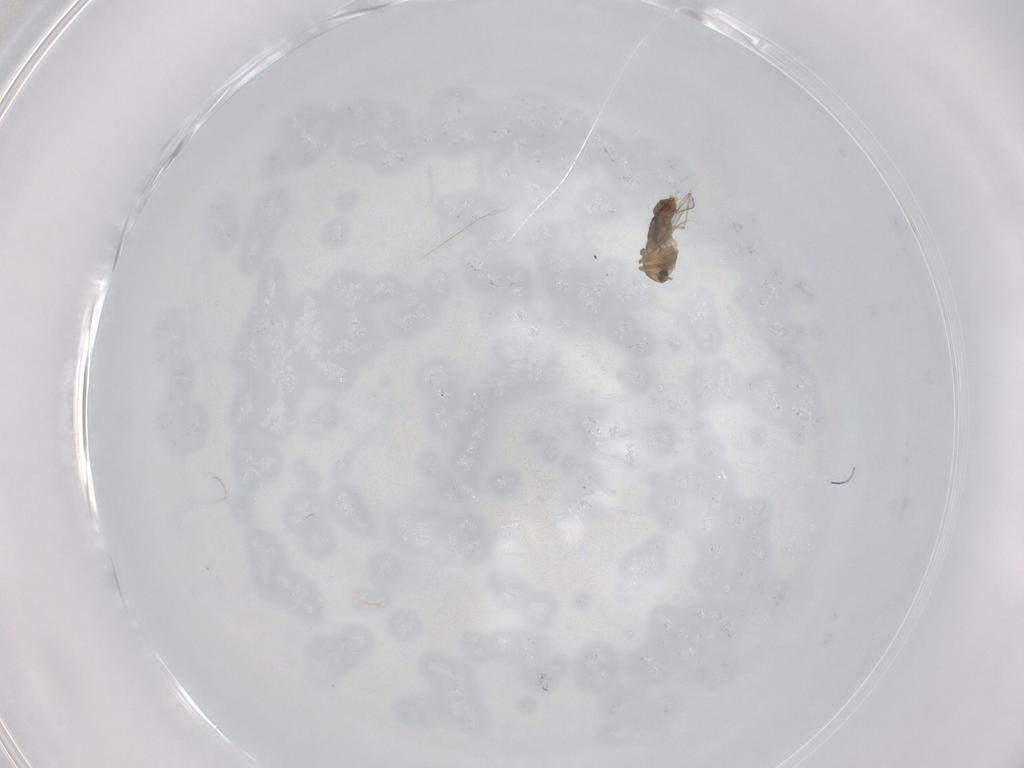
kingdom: Animalia
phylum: Arthropoda
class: Insecta
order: Diptera
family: Chironomidae
